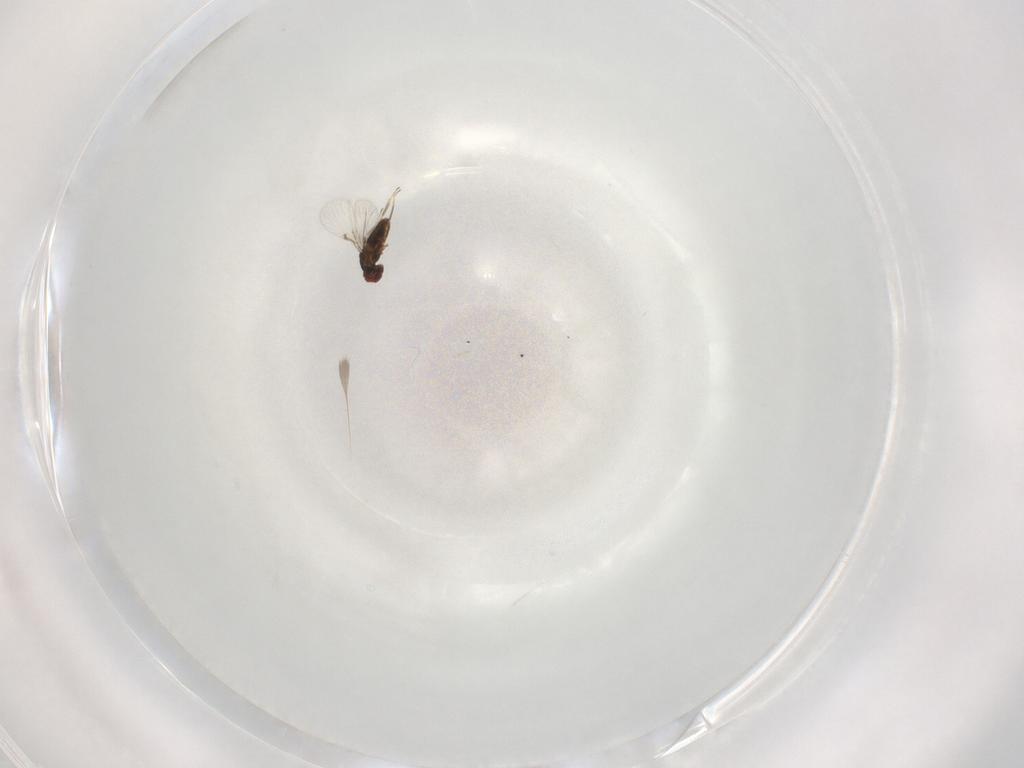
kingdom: Animalia
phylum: Arthropoda
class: Insecta
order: Hymenoptera
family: Agaonidae
